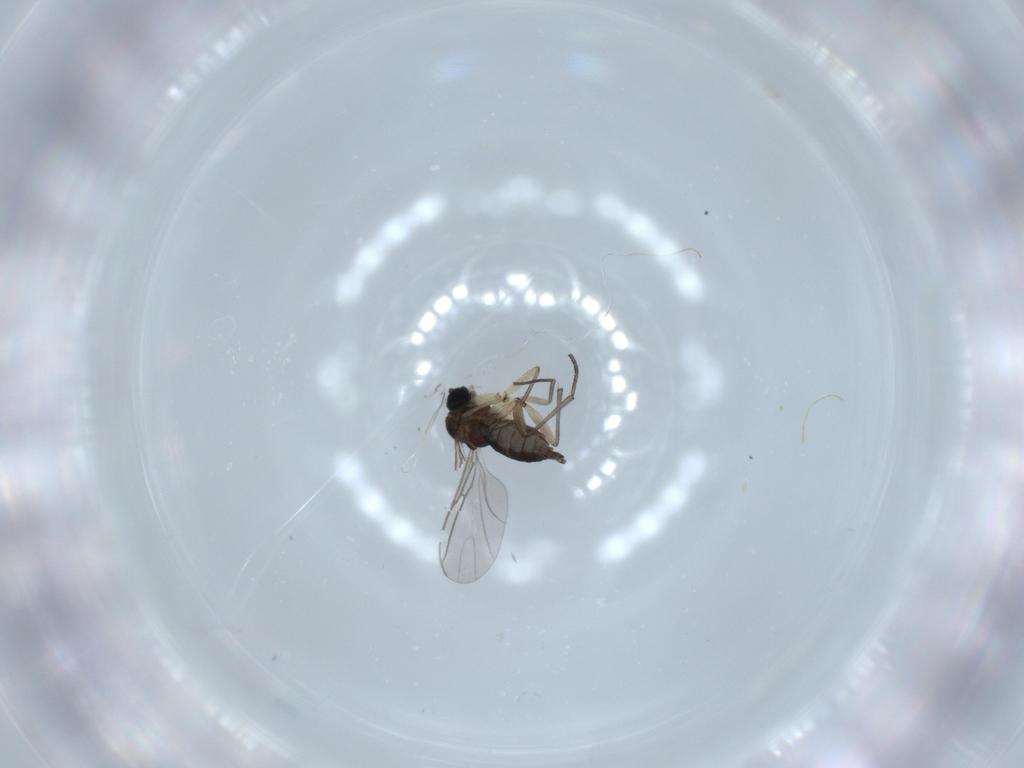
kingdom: Animalia
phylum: Arthropoda
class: Insecta
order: Diptera
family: Sciaridae
